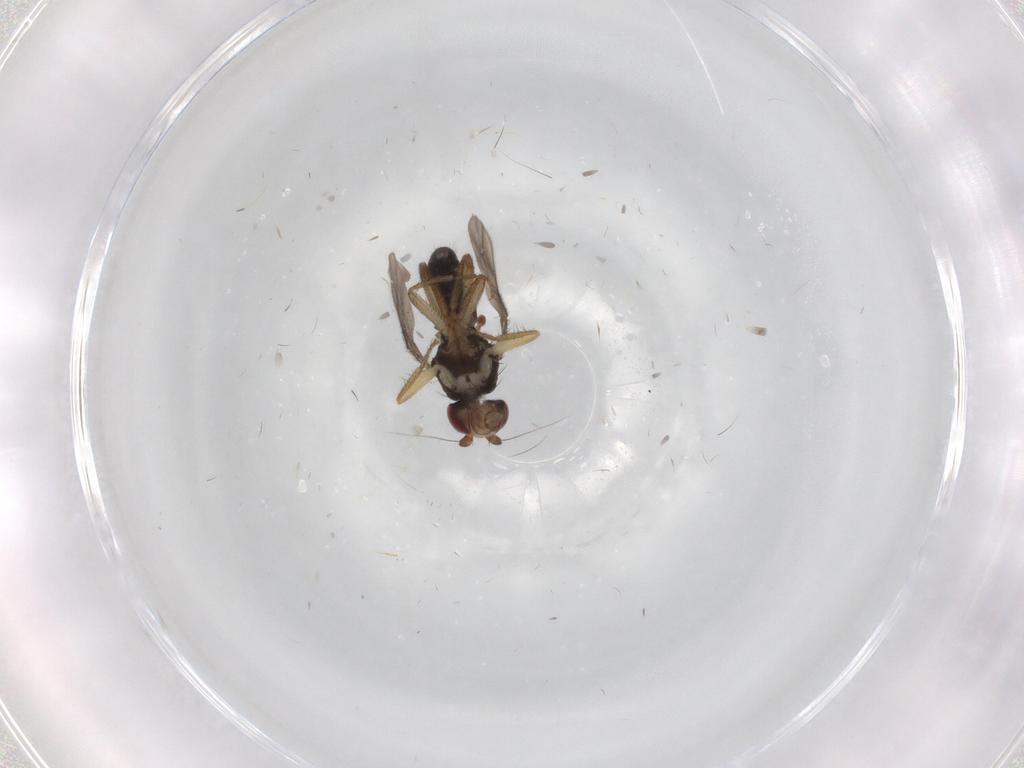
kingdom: Animalia
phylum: Arthropoda
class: Insecta
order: Diptera
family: Sphaeroceridae
